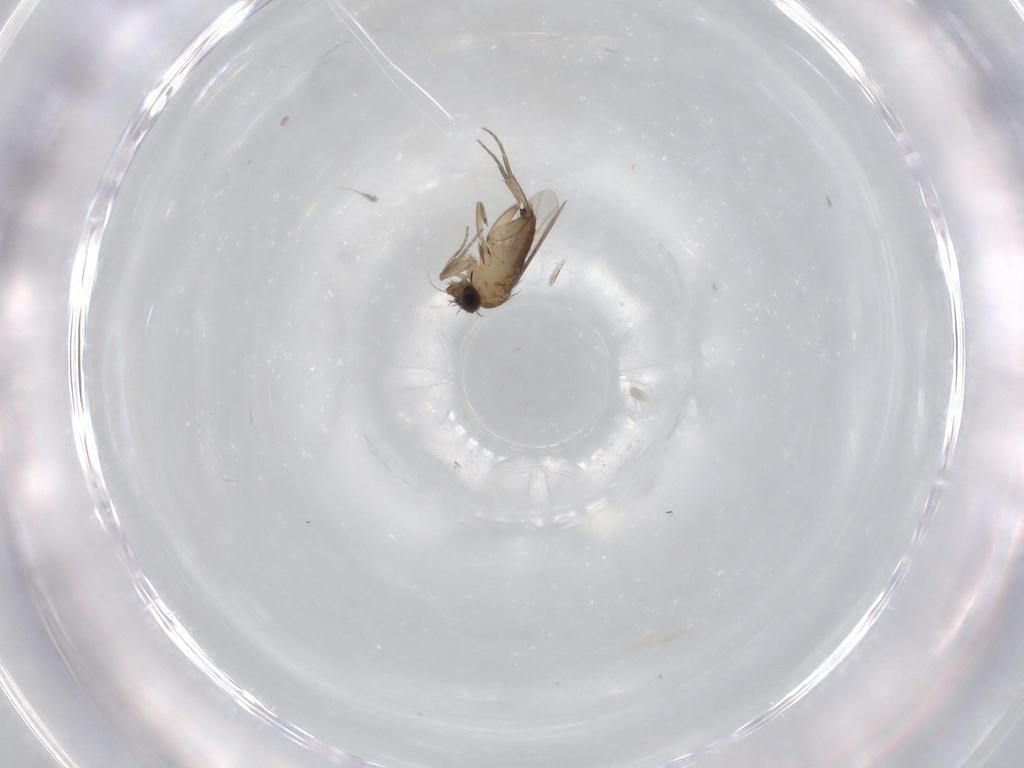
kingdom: Animalia
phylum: Arthropoda
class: Insecta
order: Diptera
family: Phoridae
